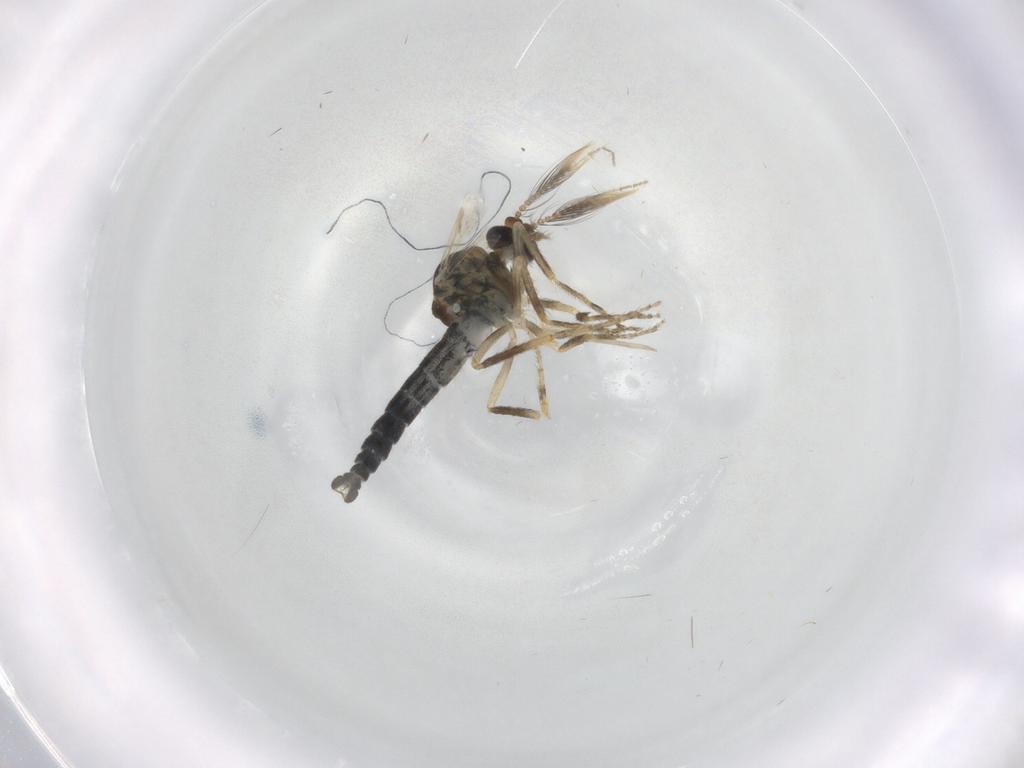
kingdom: Animalia
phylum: Arthropoda
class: Insecta
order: Diptera
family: Ceratopogonidae
